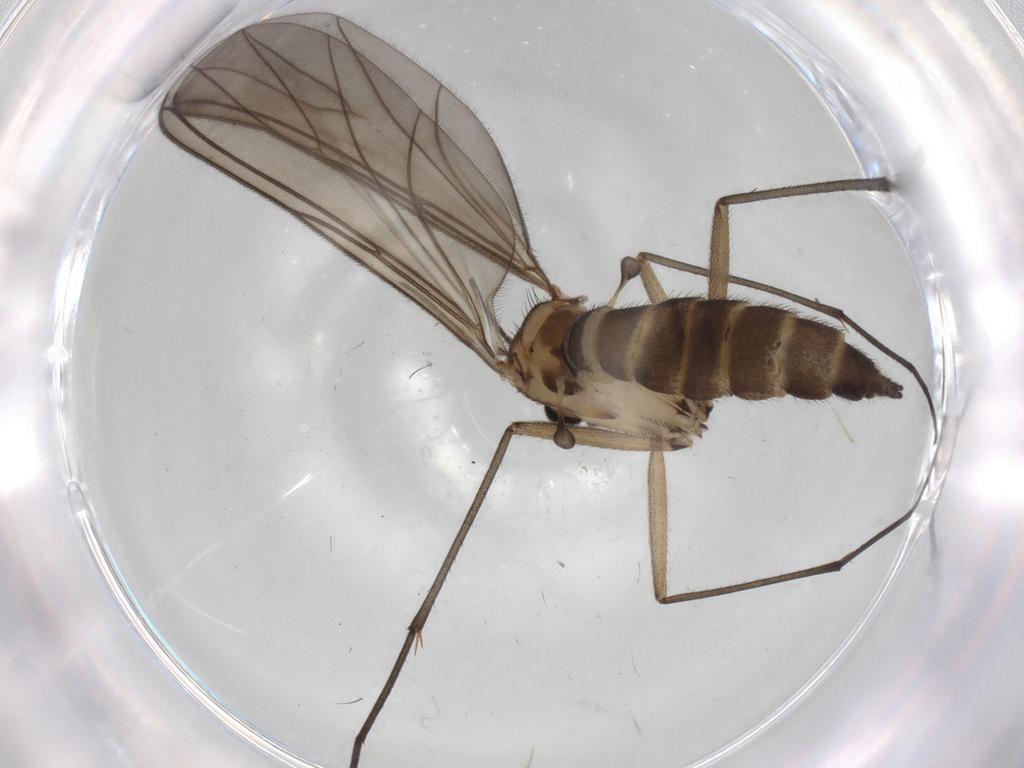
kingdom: Animalia
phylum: Arthropoda
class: Insecta
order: Diptera
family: Sciaridae
